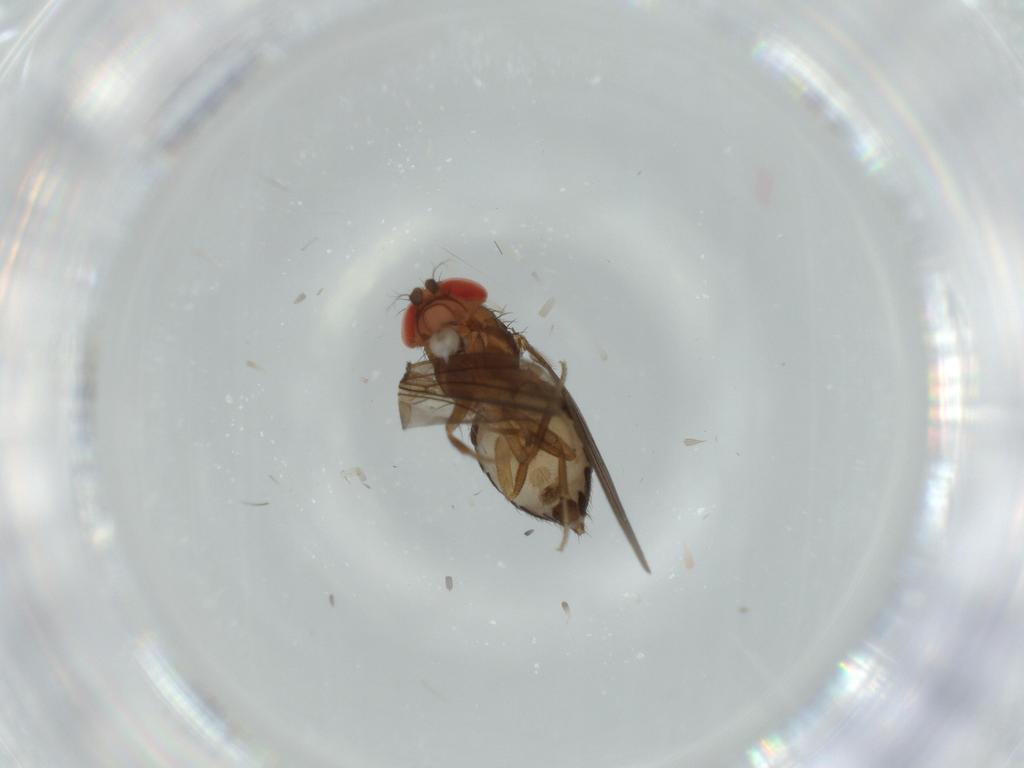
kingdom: Animalia
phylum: Arthropoda
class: Insecta
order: Diptera
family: Drosophilidae
